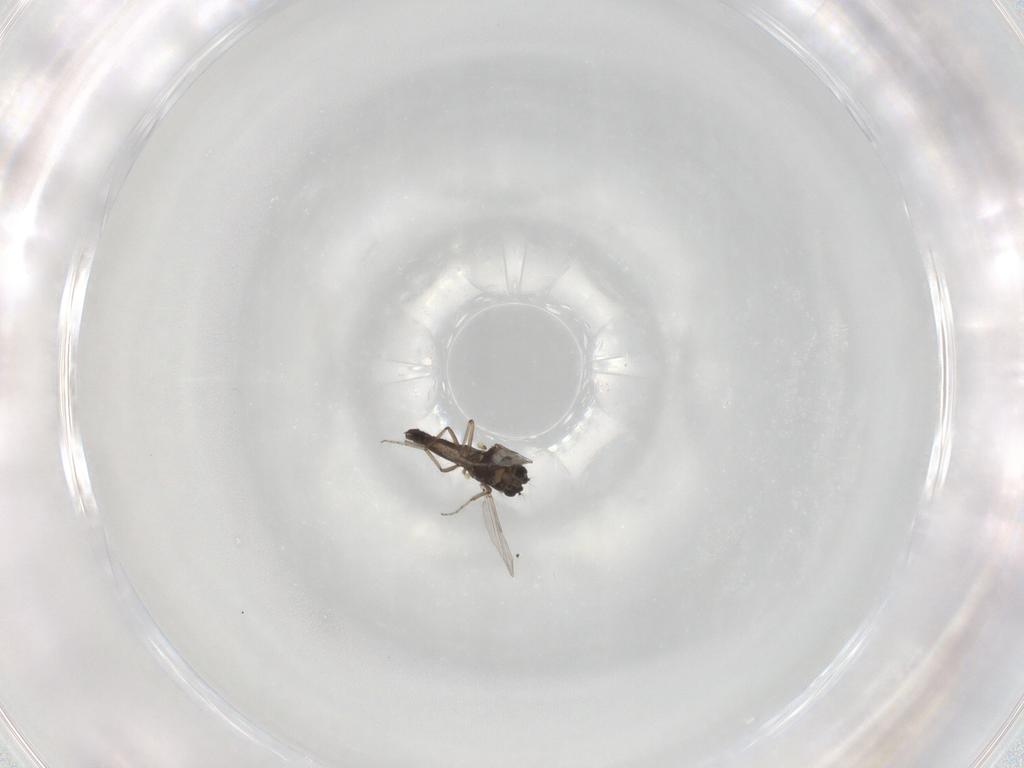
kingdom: Animalia
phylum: Arthropoda
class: Insecta
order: Diptera
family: Ceratopogonidae
